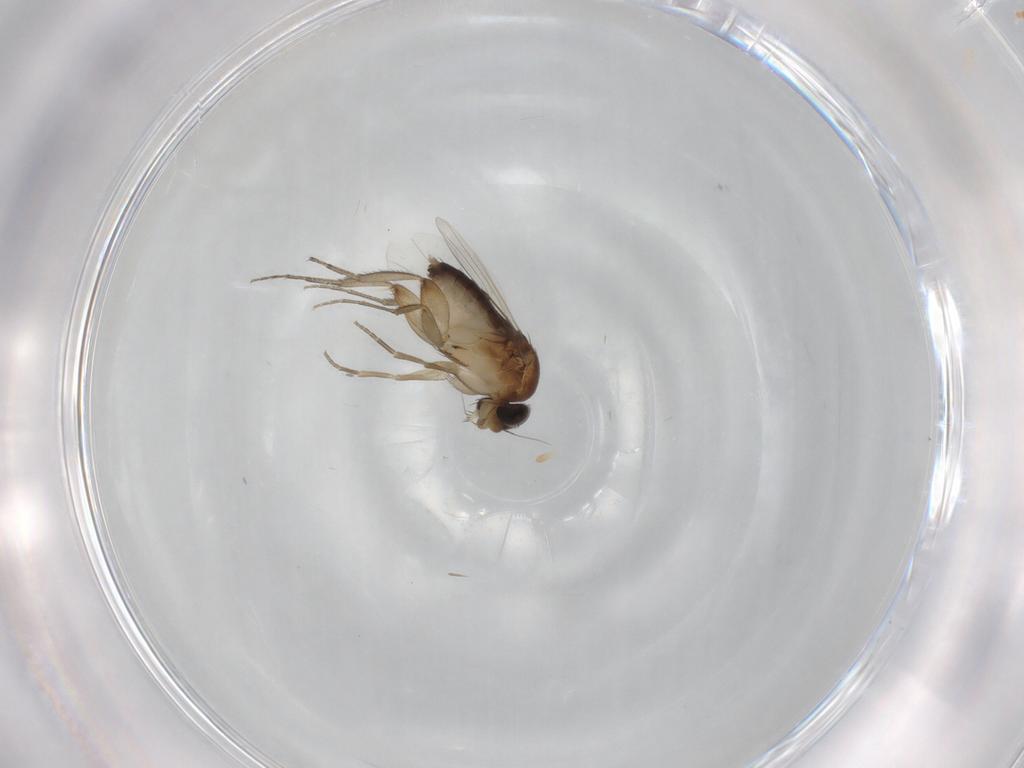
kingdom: Animalia
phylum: Arthropoda
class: Insecta
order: Diptera
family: Phoridae
